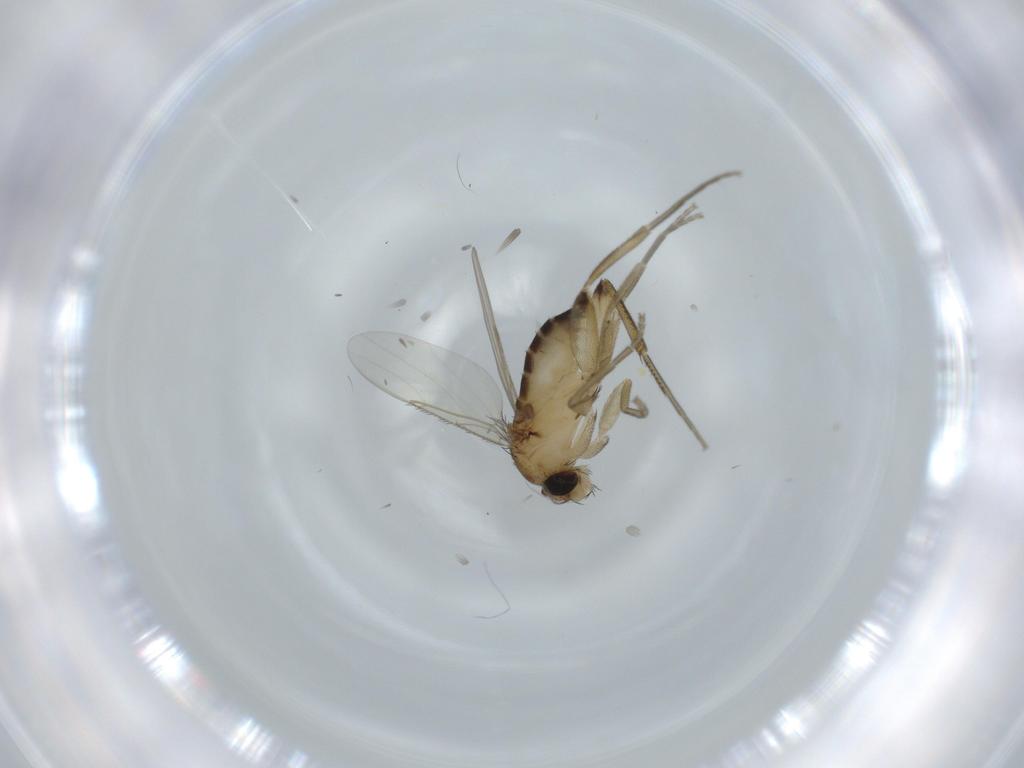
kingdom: Animalia
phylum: Arthropoda
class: Insecta
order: Diptera
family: Phoridae
